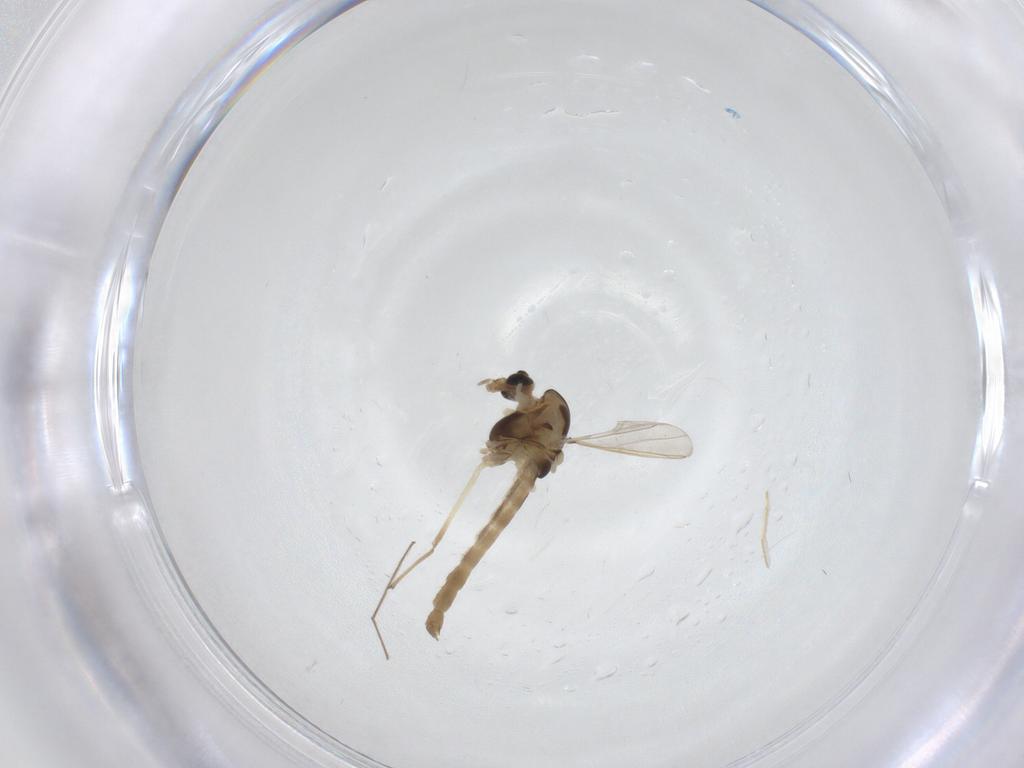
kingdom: Animalia
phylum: Arthropoda
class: Insecta
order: Diptera
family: Chironomidae
